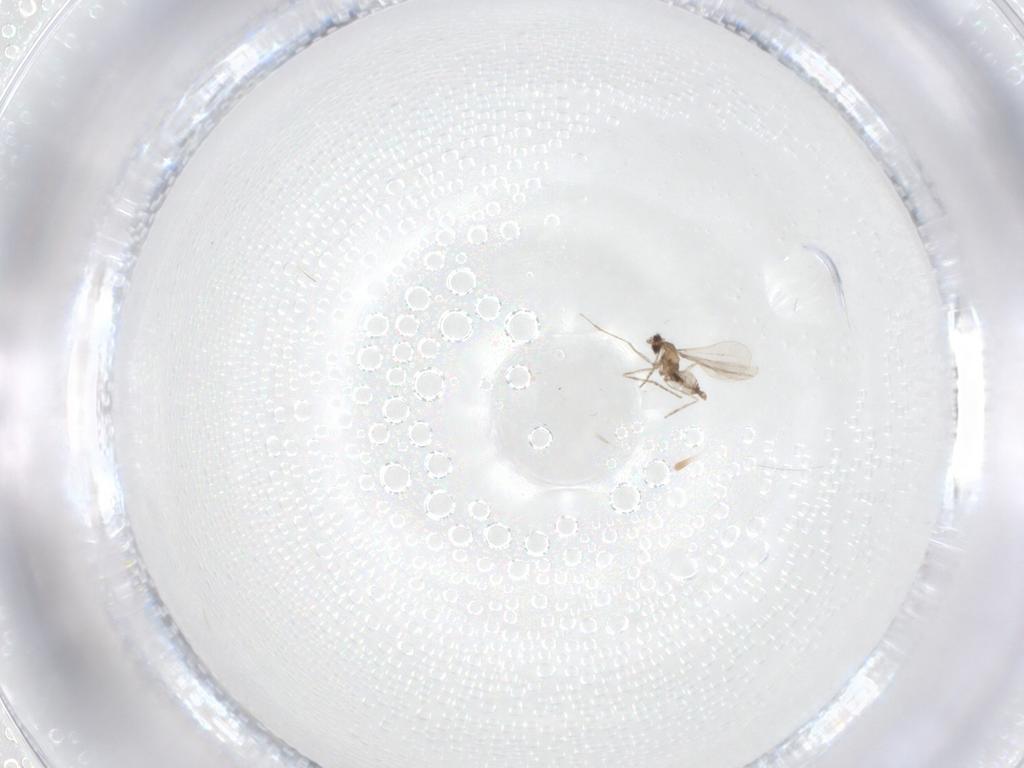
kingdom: Animalia
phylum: Arthropoda
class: Insecta
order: Diptera
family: Cecidomyiidae
